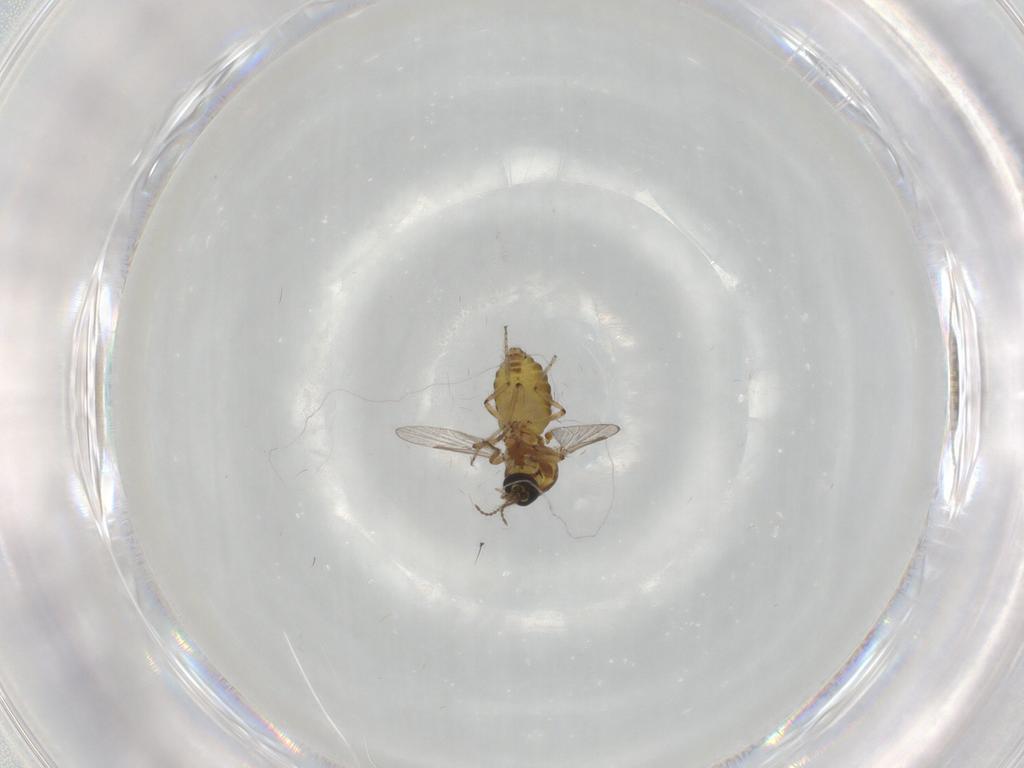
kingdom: Animalia
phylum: Arthropoda
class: Insecta
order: Diptera
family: Ceratopogonidae
